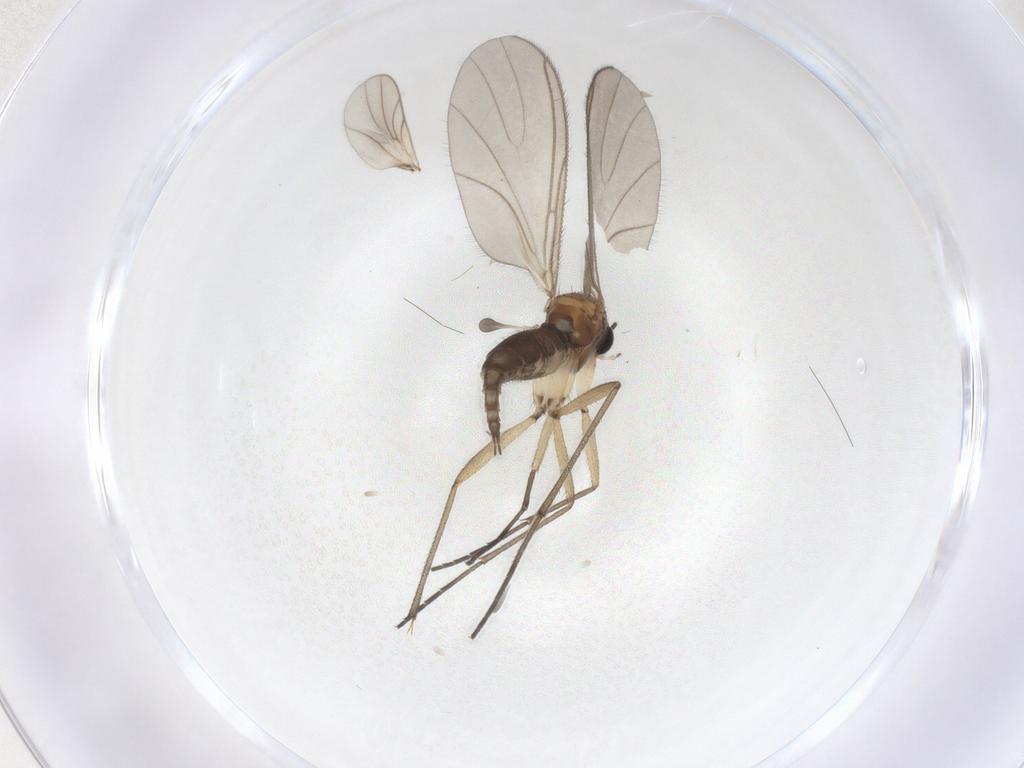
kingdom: Animalia
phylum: Arthropoda
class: Insecta
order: Diptera
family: Sciaridae
